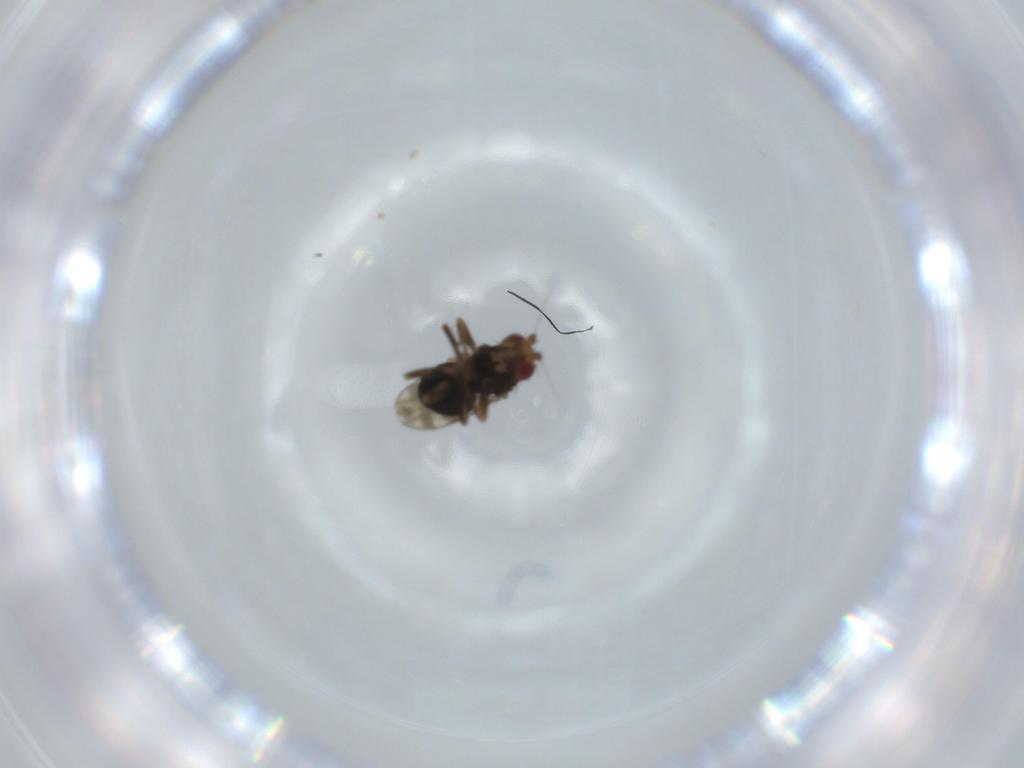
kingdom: Animalia
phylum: Arthropoda
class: Insecta
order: Diptera
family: Sphaeroceridae
